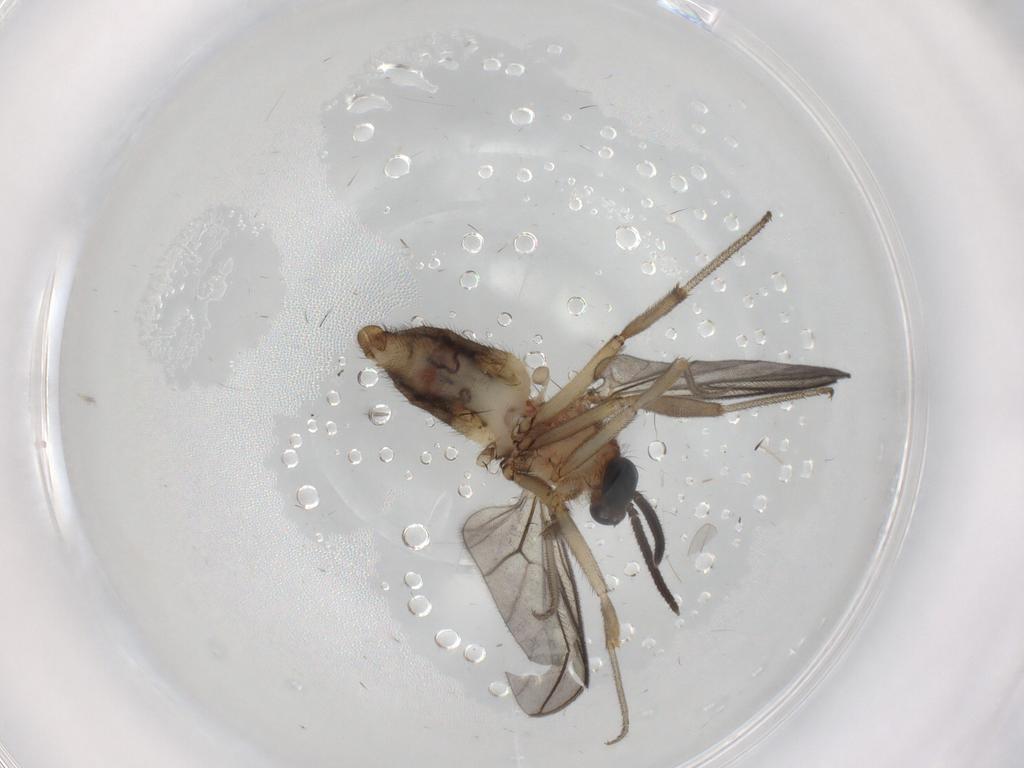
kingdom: Animalia
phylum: Arthropoda
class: Insecta
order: Diptera
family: Anisopodidae
